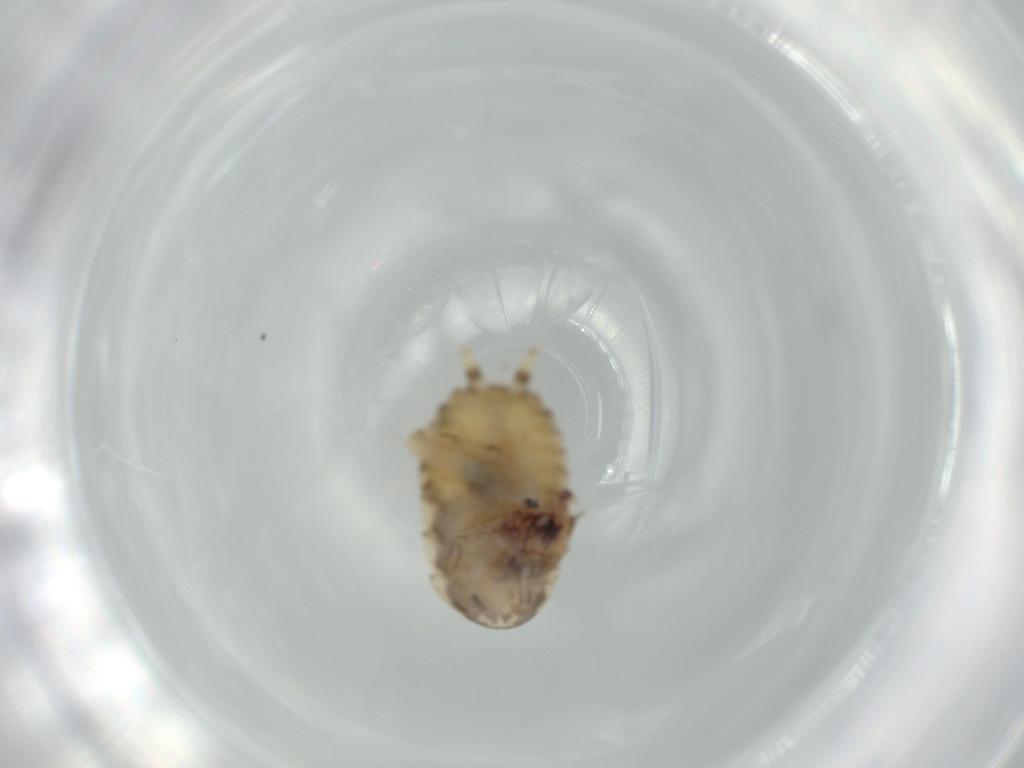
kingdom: Animalia
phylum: Arthropoda
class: Insecta
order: Blattodea
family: Ectobiidae
